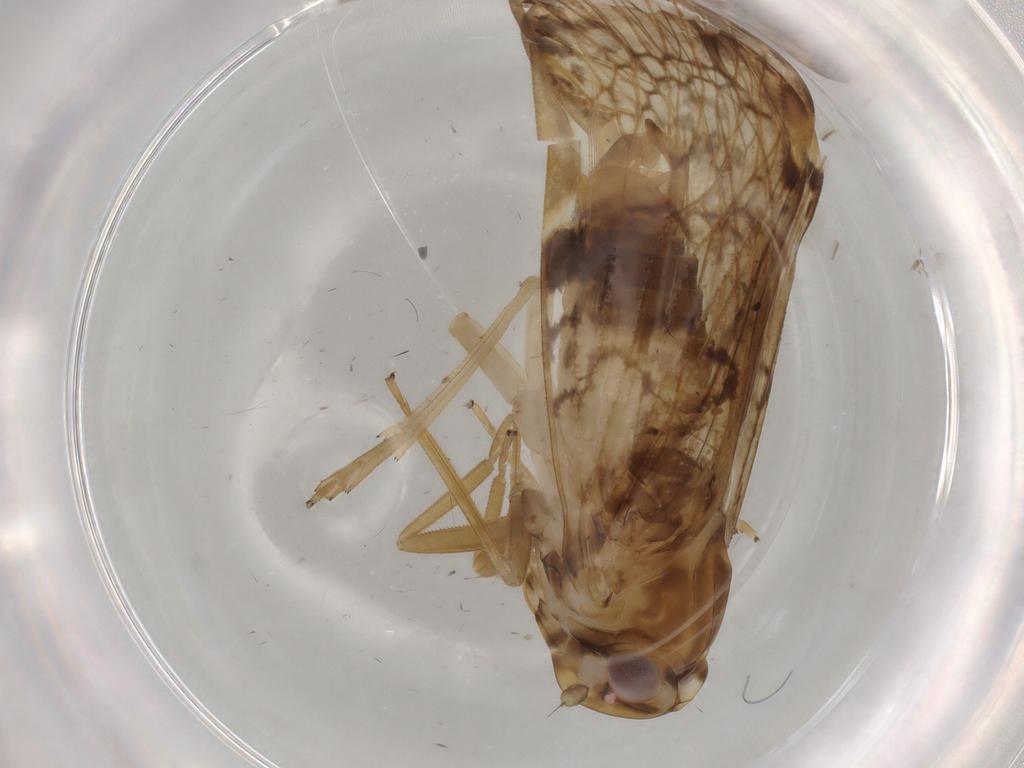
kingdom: Animalia
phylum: Arthropoda
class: Insecta
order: Hemiptera
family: Cixiidae
